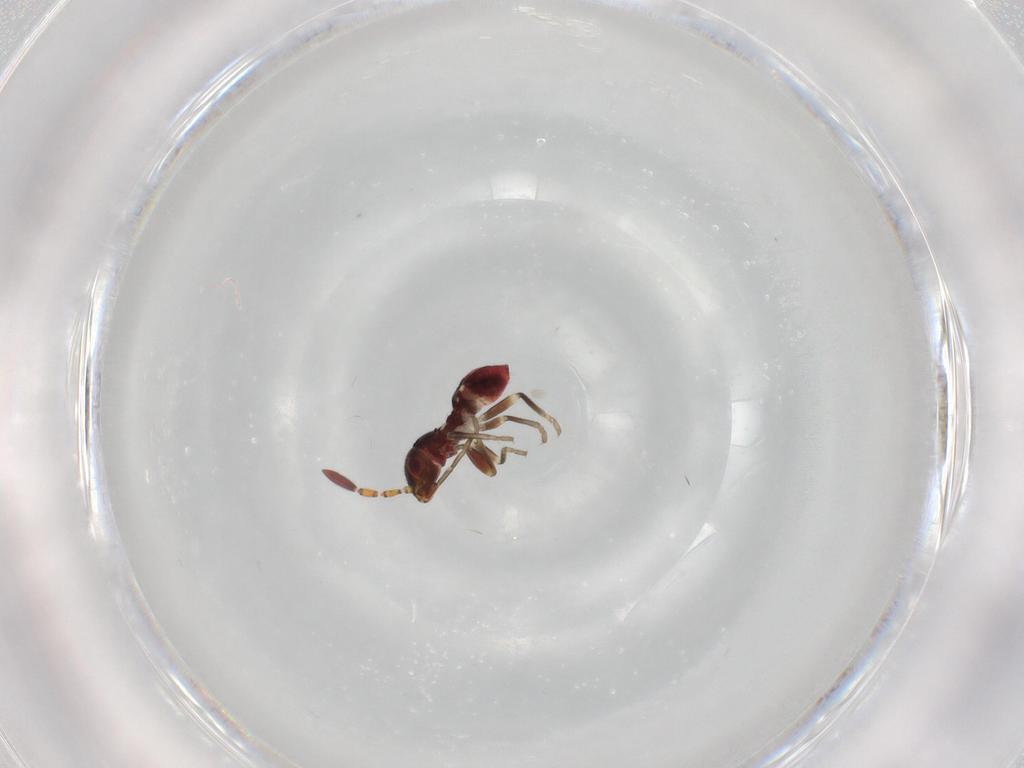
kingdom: Animalia
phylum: Arthropoda
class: Insecta
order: Hemiptera
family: Rhyparochromidae
